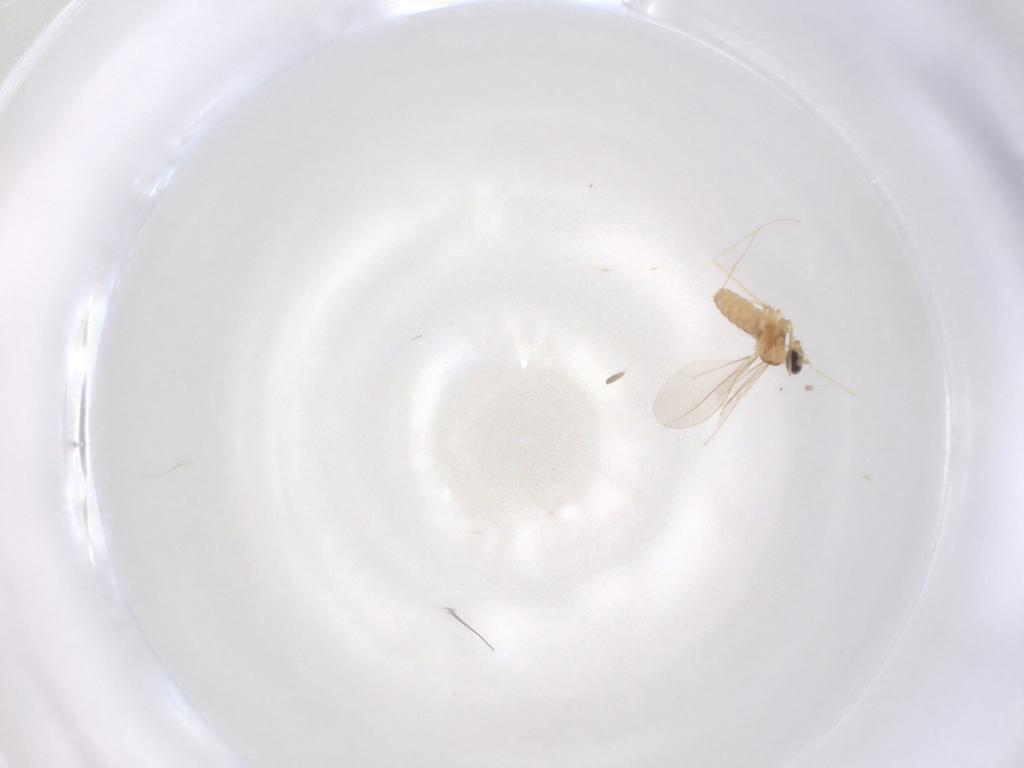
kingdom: Animalia
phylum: Arthropoda
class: Insecta
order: Diptera
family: Cecidomyiidae
